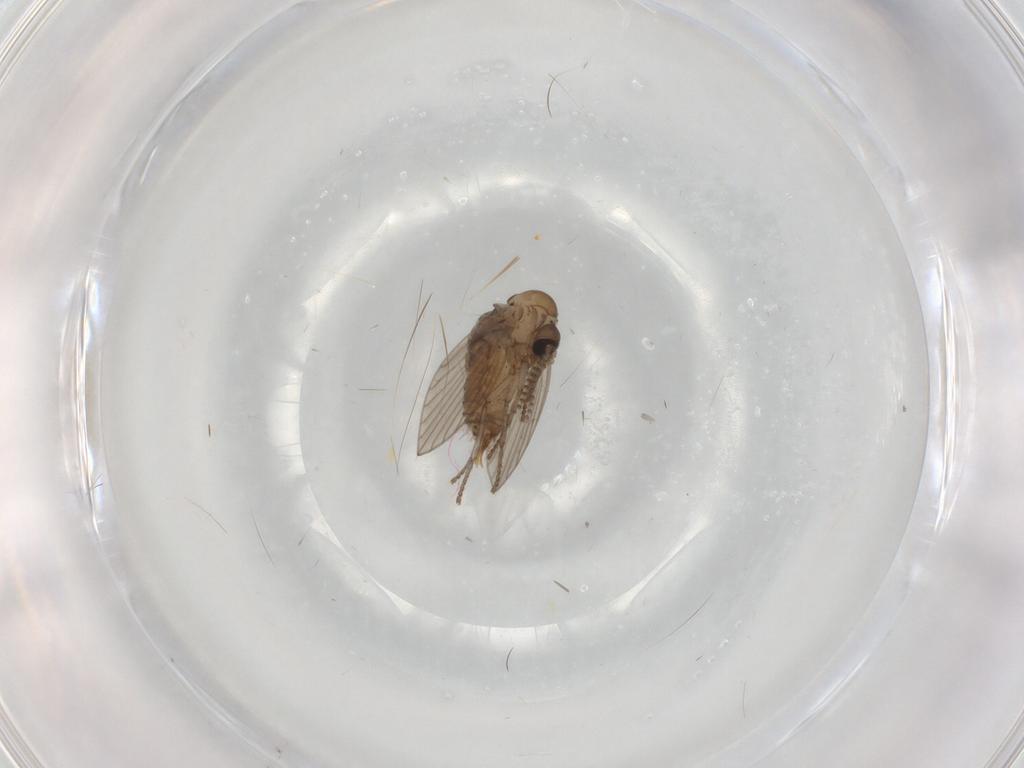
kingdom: Animalia
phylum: Arthropoda
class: Insecta
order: Diptera
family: Psychodidae
